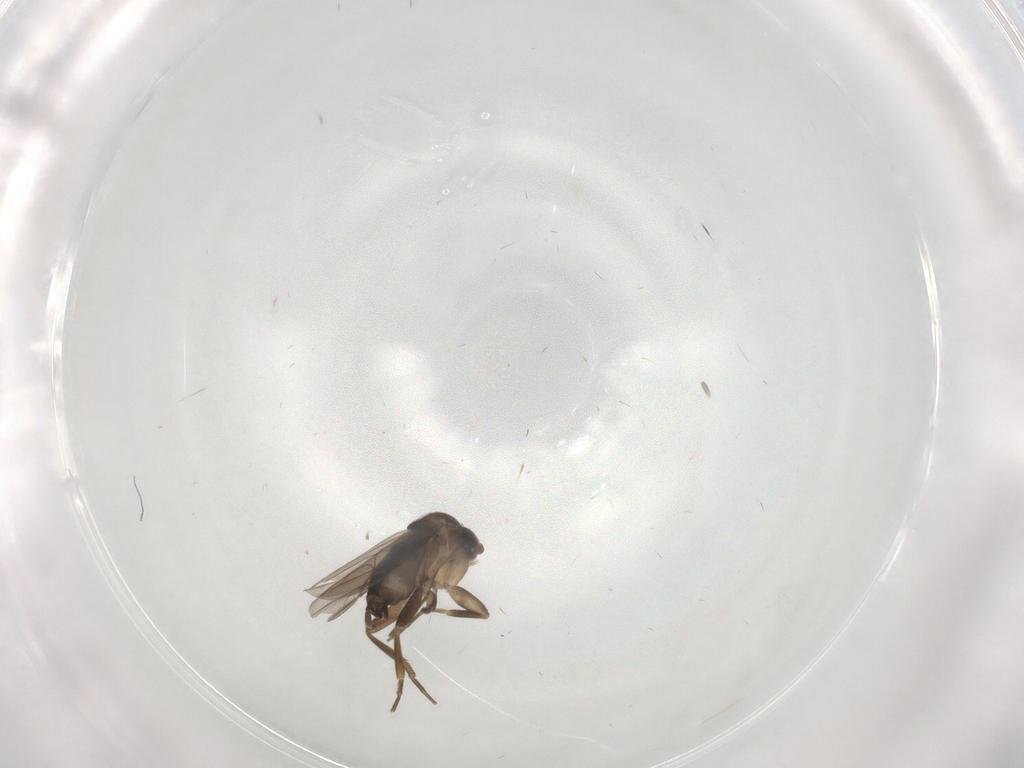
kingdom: Animalia
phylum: Arthropoda
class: Insecta
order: Diptera
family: Phoridae
